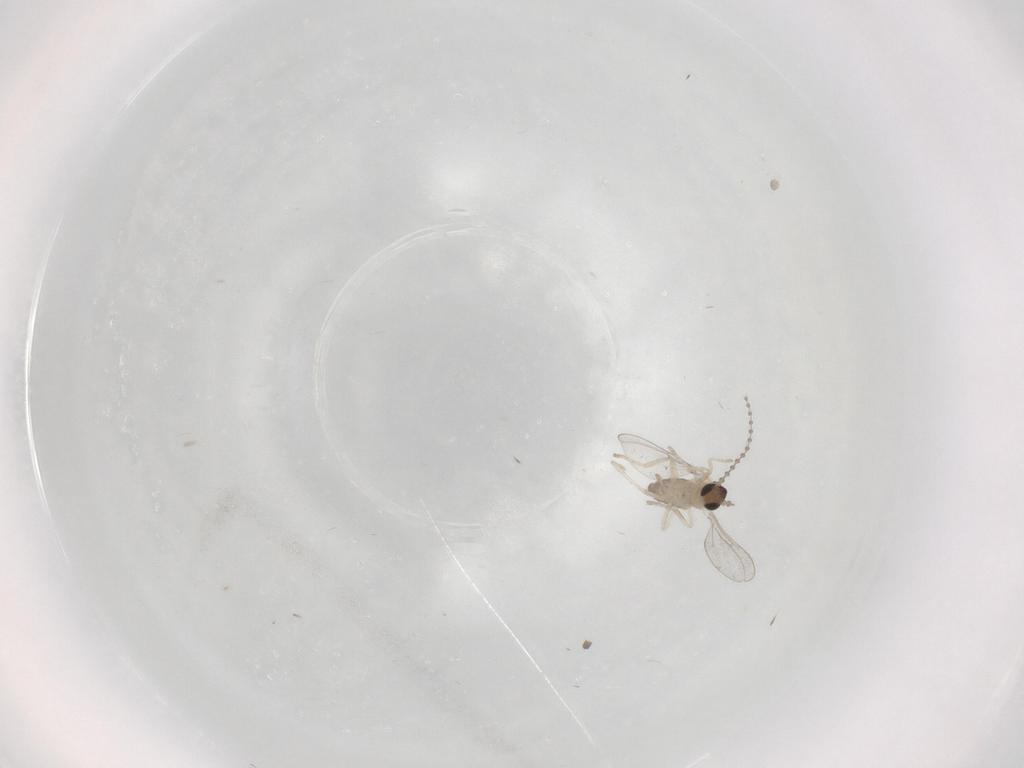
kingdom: Animalia
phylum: Arthropoda
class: Insecta
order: Diptera
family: Cecidomyiidae
